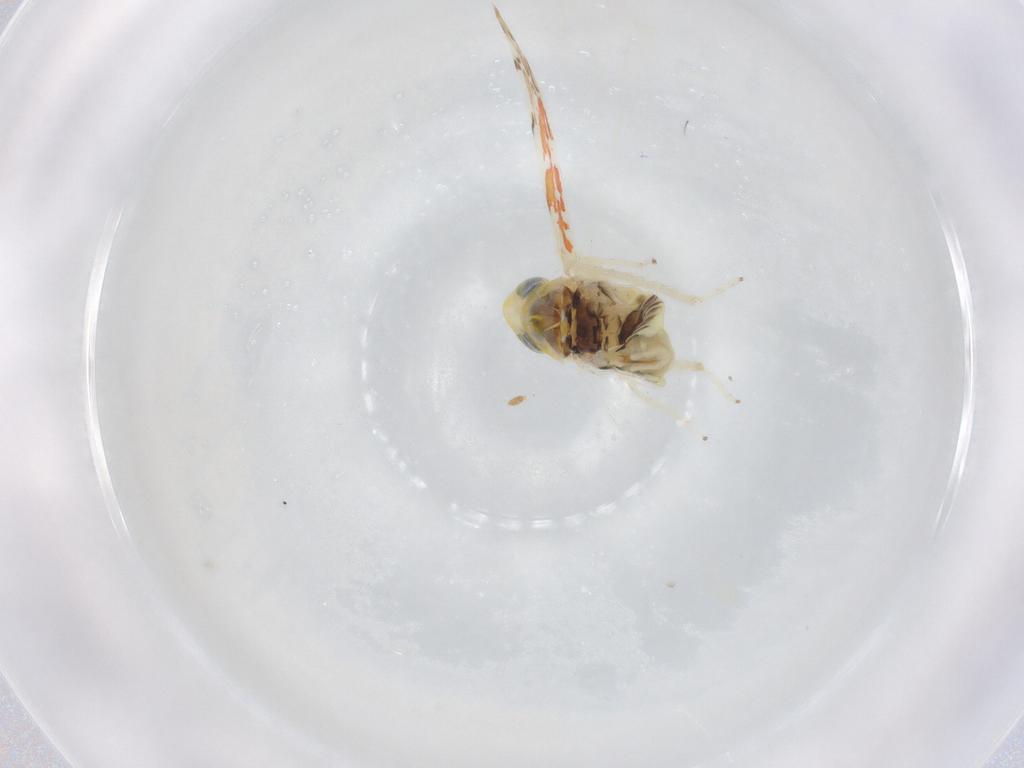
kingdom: Animalia
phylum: Arthropoda
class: Insecta
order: Hemiptera
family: Cicadellidae
